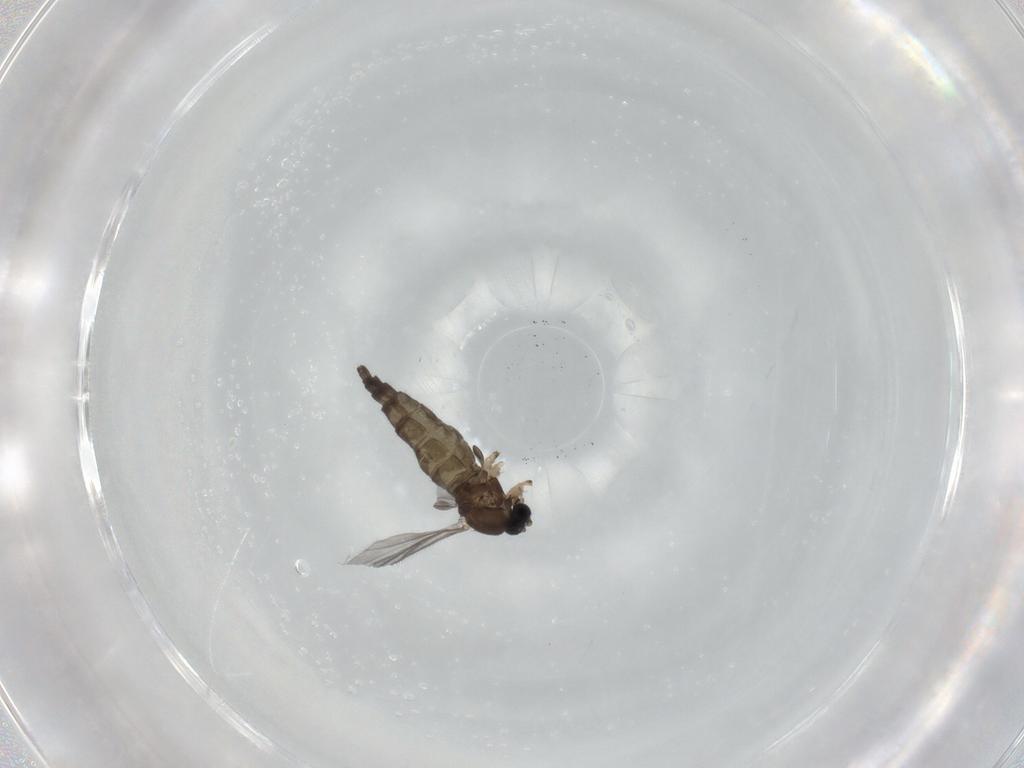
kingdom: Animalia
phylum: Arthropoda
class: Insecta
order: Diptera
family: Sciaridae
